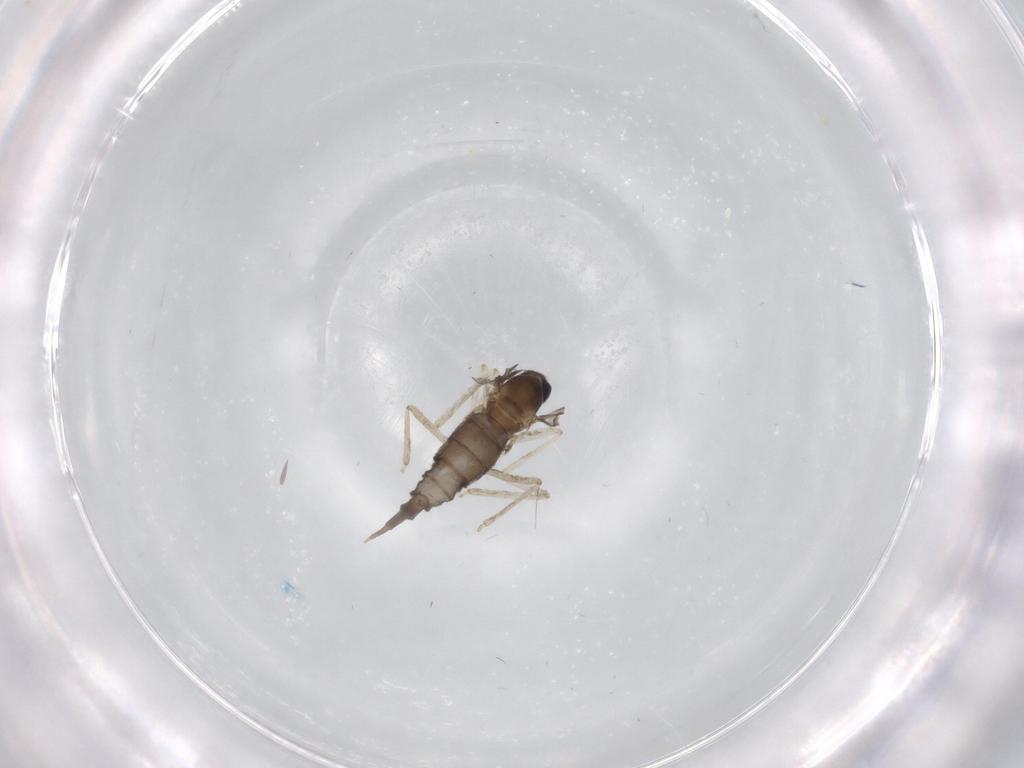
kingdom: Animalia
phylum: Arthropoda
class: Insecta
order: Diptera
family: Cecidomyiidae
